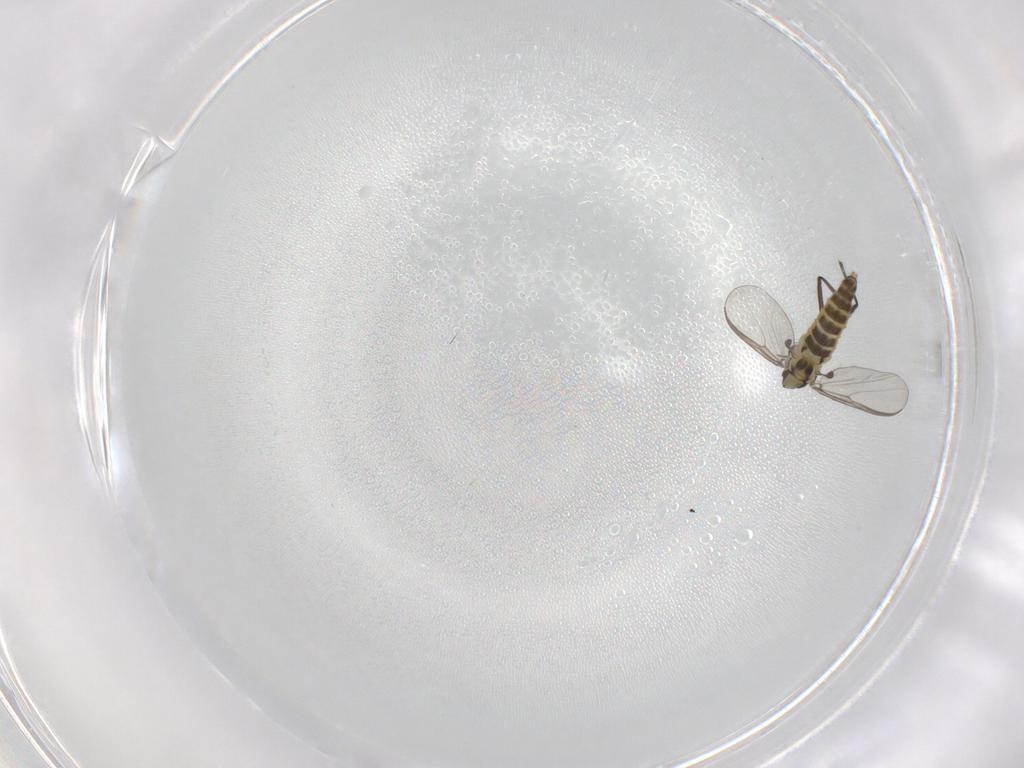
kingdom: Animalia
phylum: Arthropoda
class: Insecta
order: Diptera
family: Chironomidae
